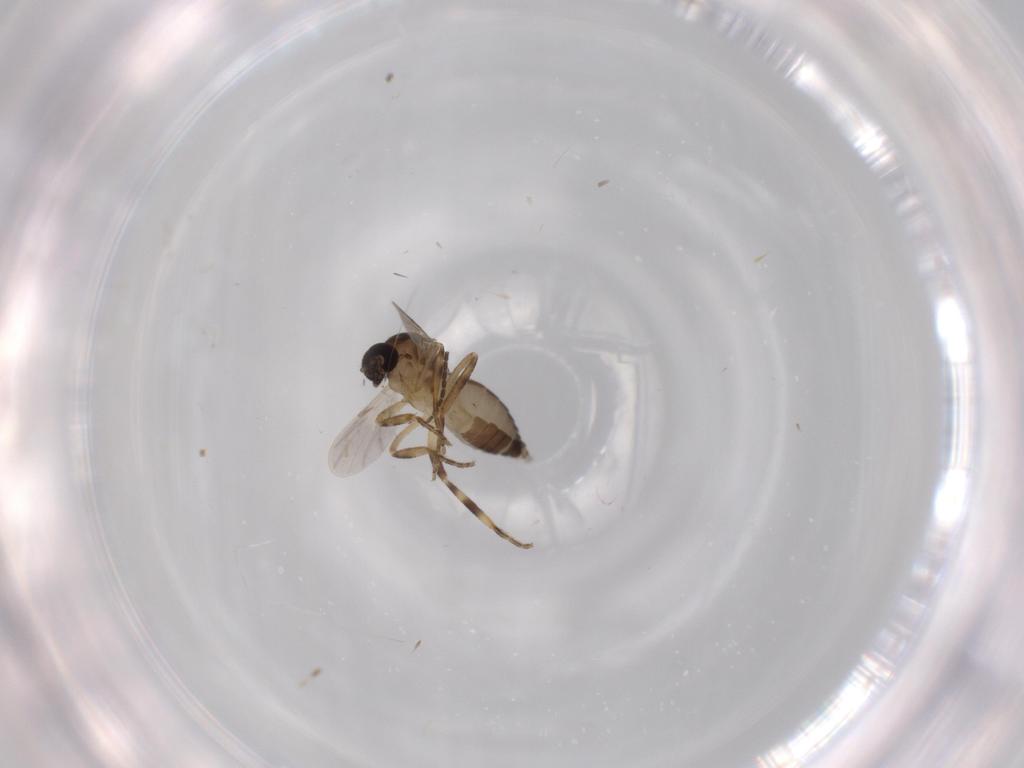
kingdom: Animalia
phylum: Arthropoda
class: Insecta
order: Diptera
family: Ceratopogonidae
